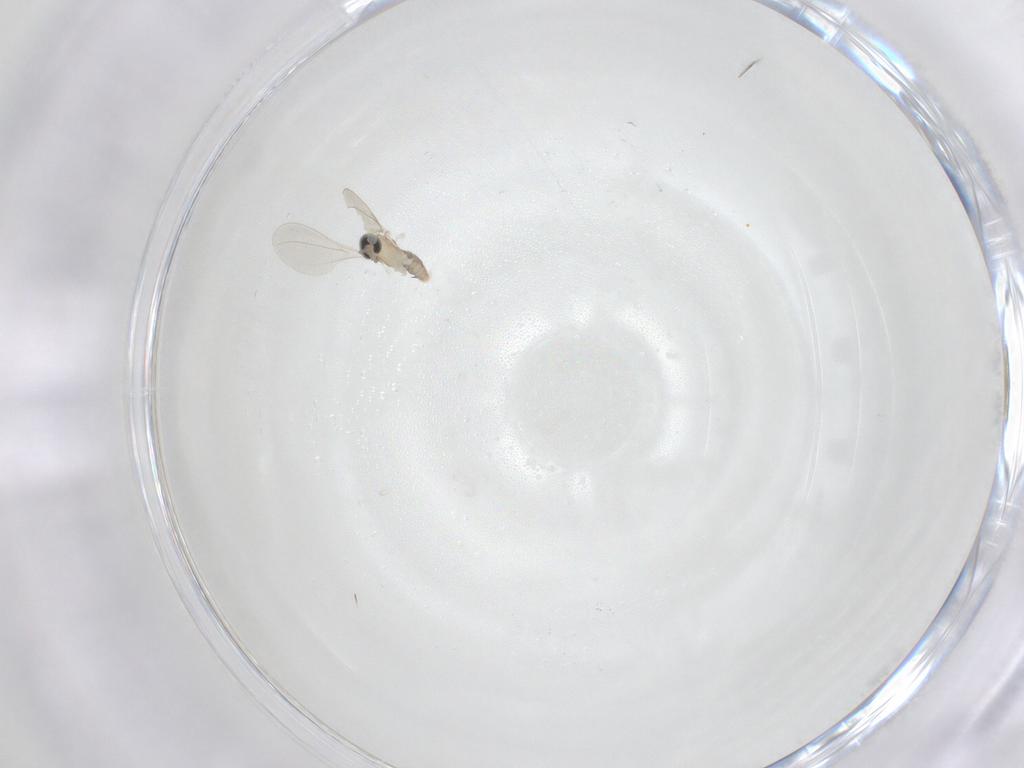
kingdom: Animalia
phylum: Arthropoda
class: Insecta
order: Diptera
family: Cecidomyiidae
